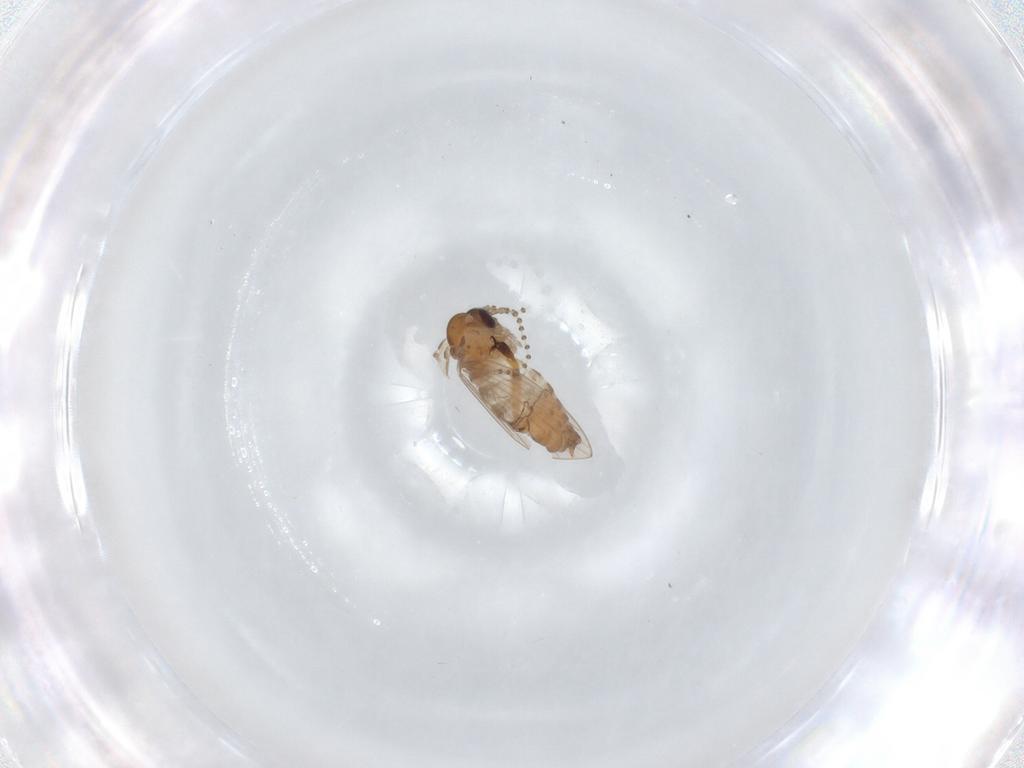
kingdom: Animalia
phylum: Arthropoda
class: Insecta
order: Diptera
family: Psychodidae
